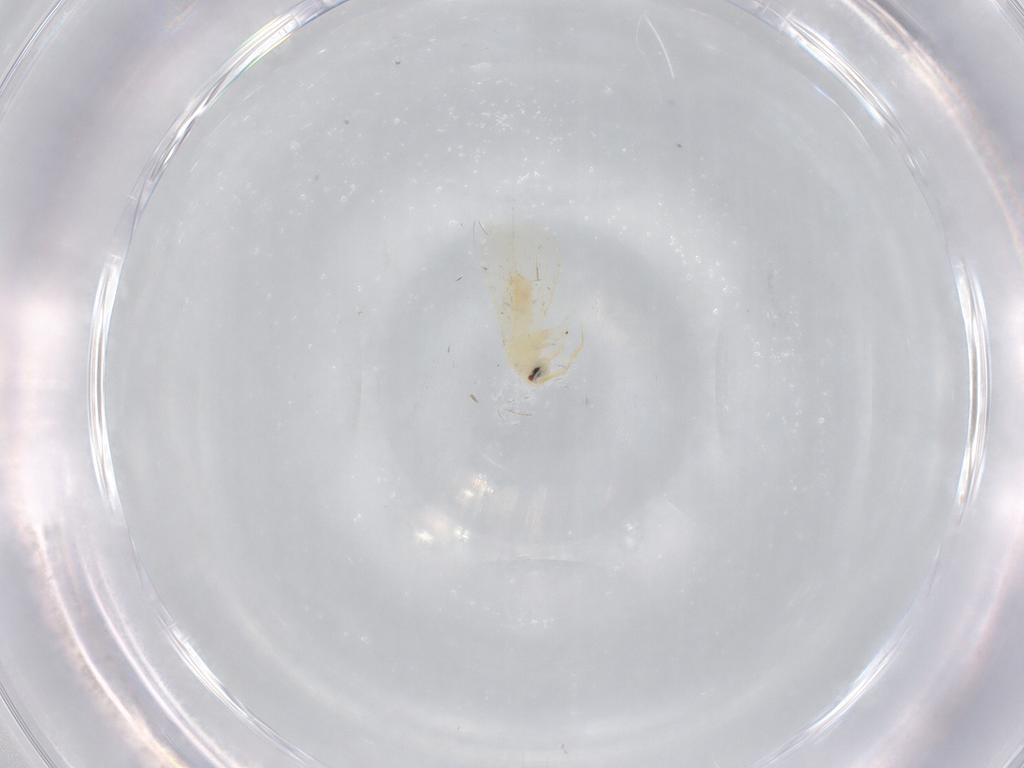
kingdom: Animalia
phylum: Arthropoda
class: Insecta
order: Hemiptera
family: Aleyrodidae
